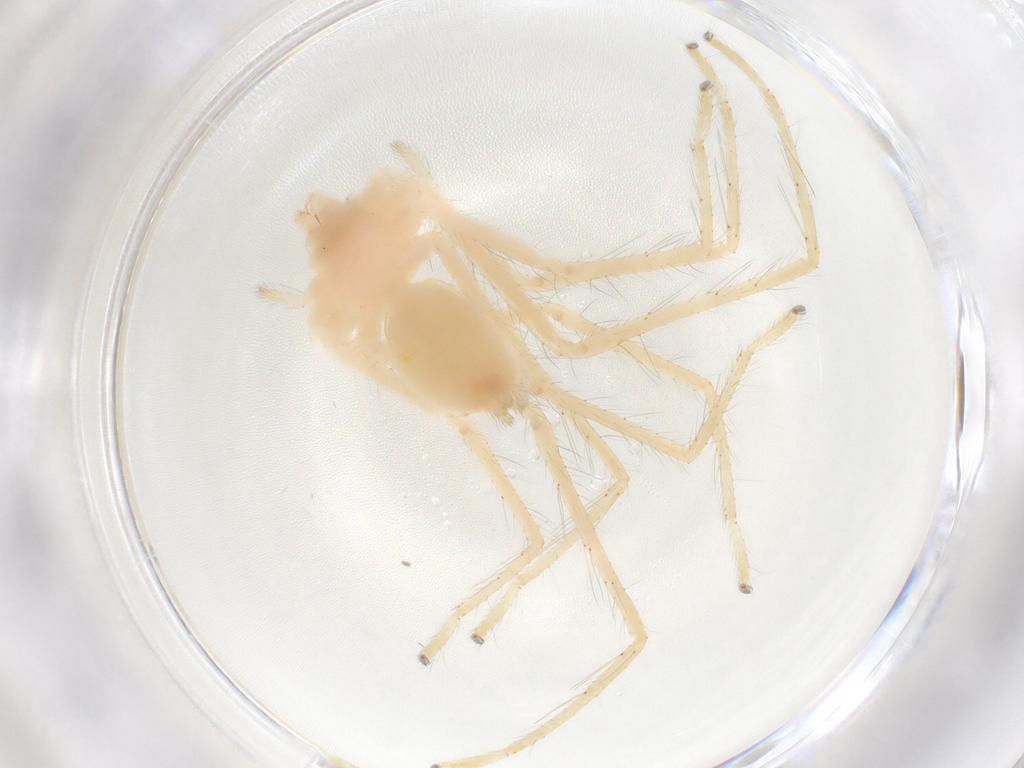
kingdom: Animalia
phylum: Arthropoda
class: Insecta
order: Diptera
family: Sciaridae
